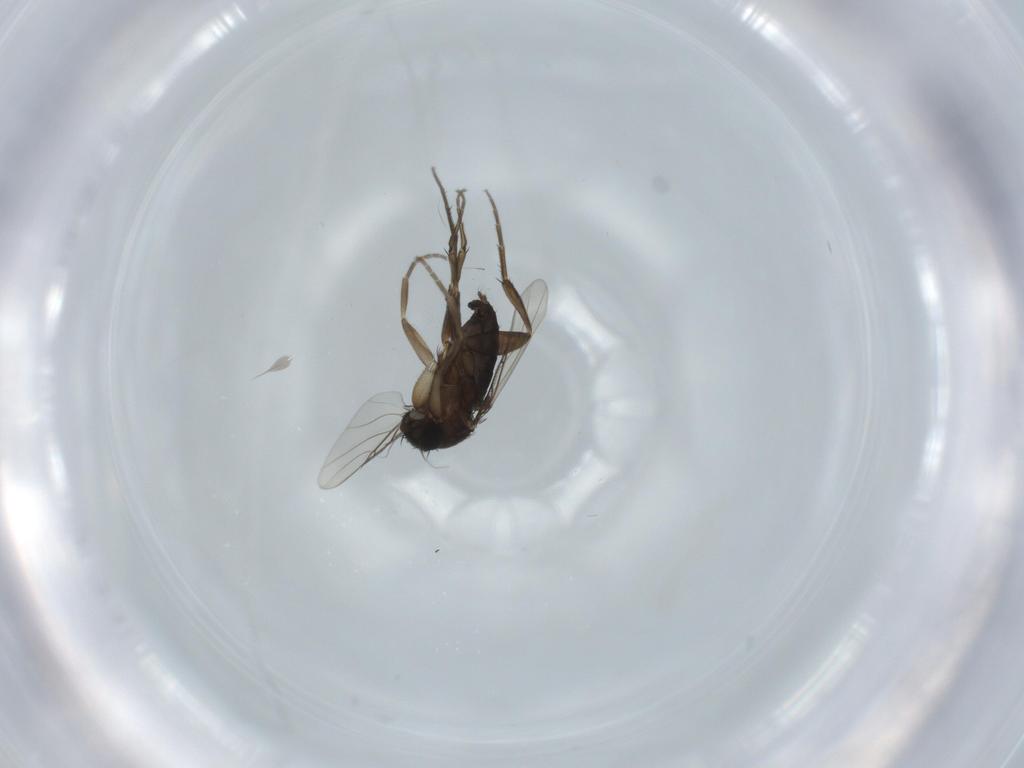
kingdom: Animalia
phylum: Arthropoda
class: Insecta
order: Diptera
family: Phoridae
